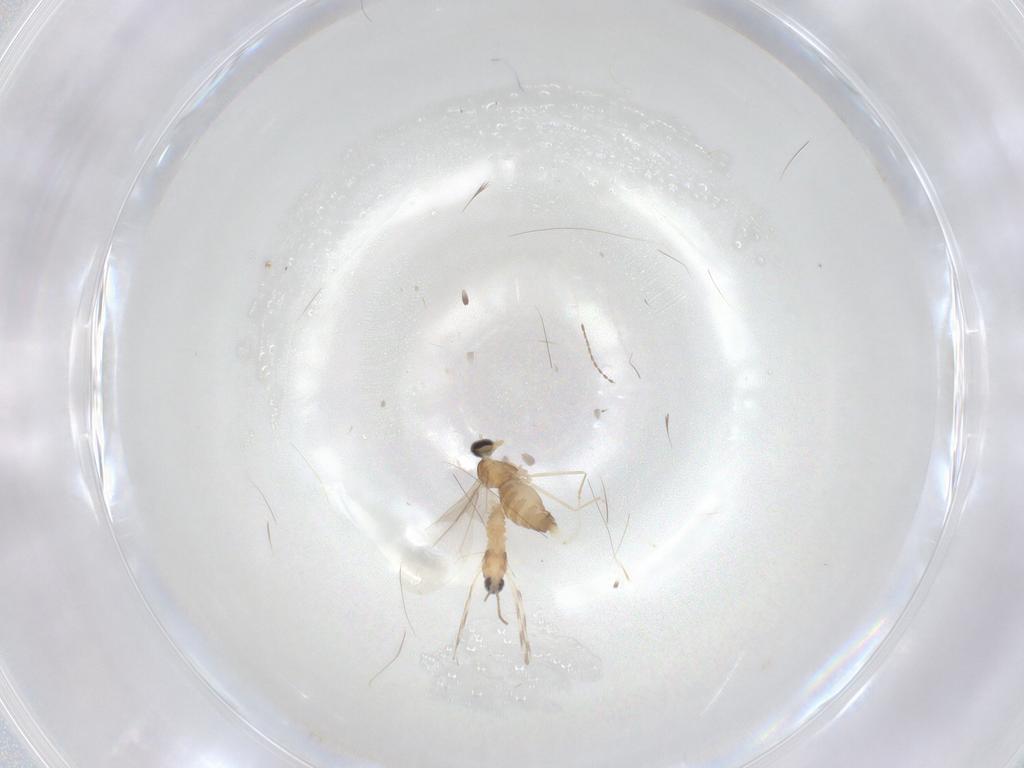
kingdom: Animalia
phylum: Arthropoda
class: Insecta
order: Diptera
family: Cecidomyiidae
